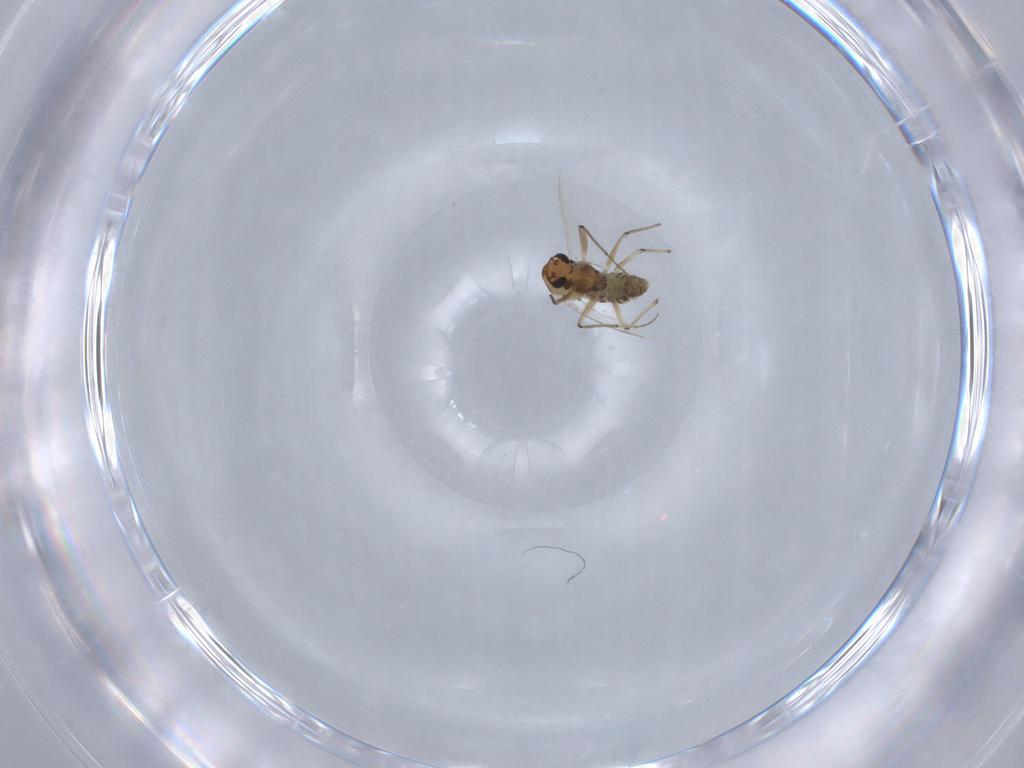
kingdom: Animalia
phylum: Arthropoda
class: Insecta
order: Diptera
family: Chironomidae
